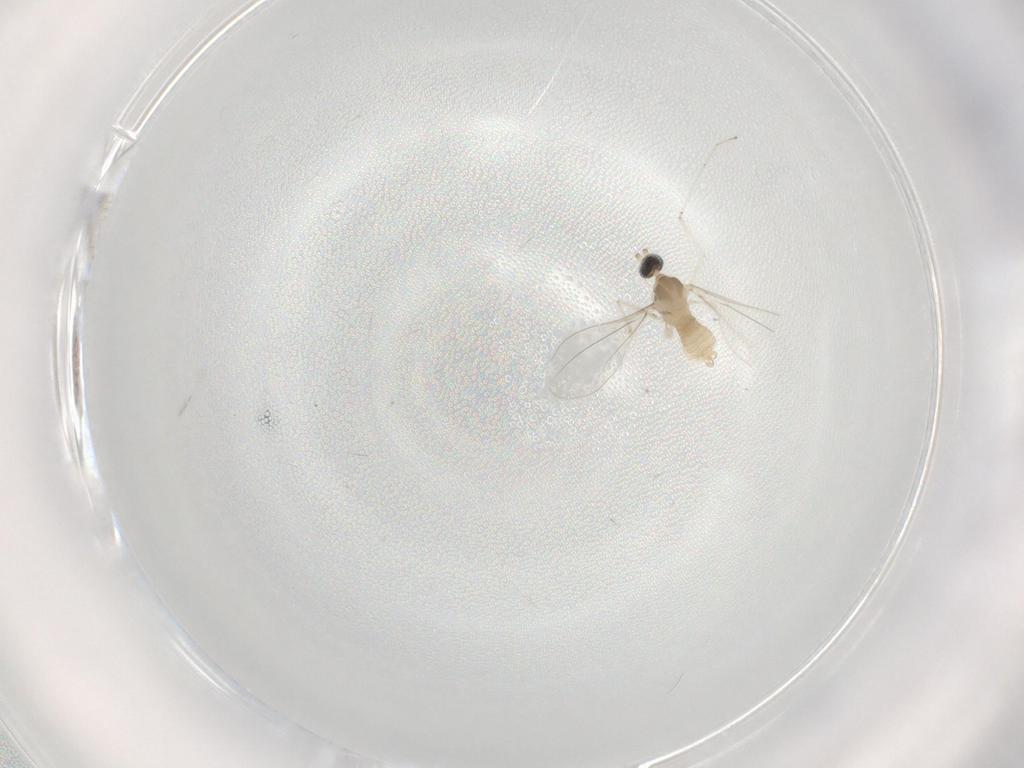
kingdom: Animalia
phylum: Arthropoda
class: Insecta
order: Diptera
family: Cecidomyiidae
